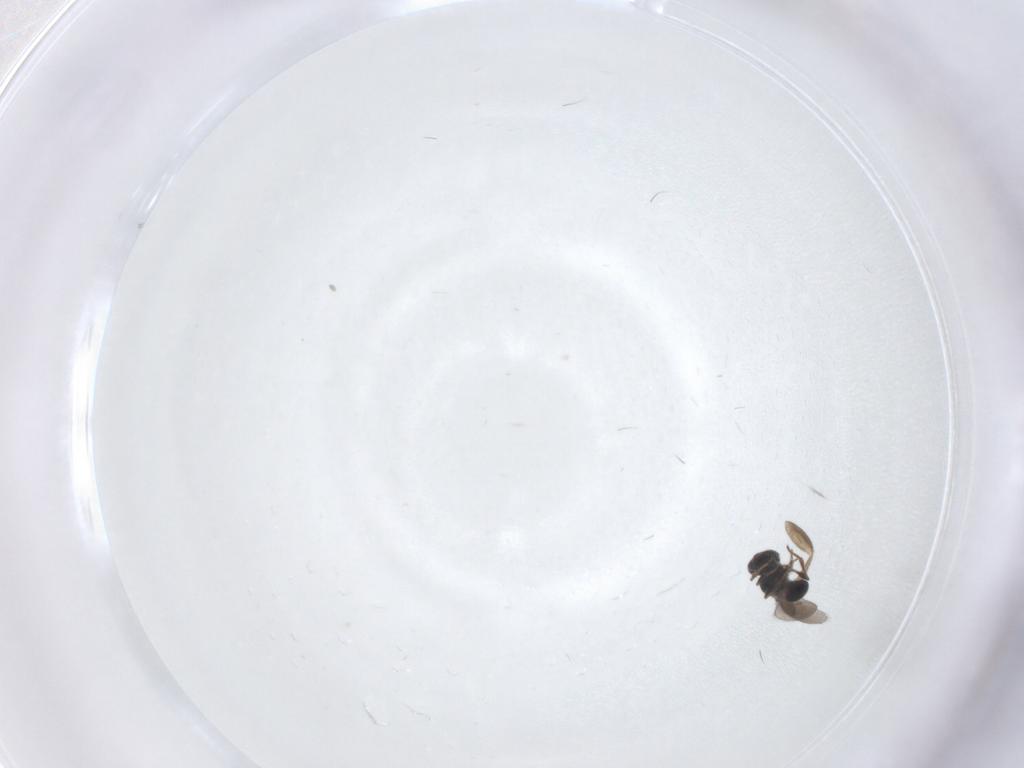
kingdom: Animalia
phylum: Arthropoda
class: Insecta
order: Hymenoptera
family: Platygastridae
